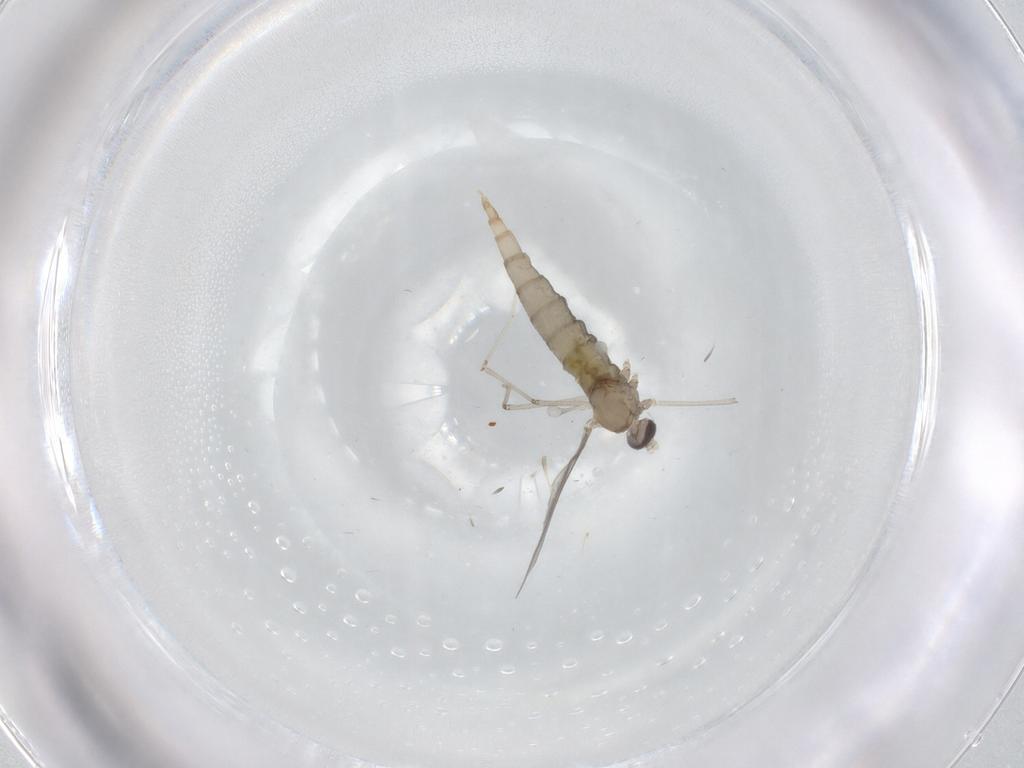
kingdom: Animalia
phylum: Arthropoda
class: Insecta
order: Diptera
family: Cecidomyiidae
